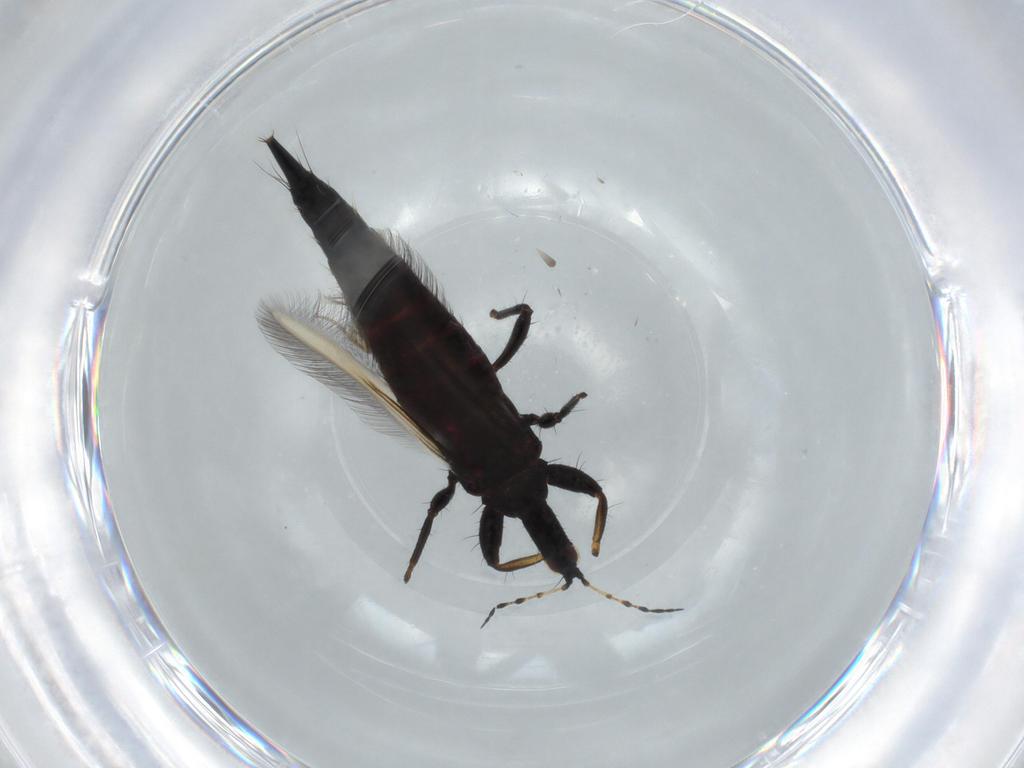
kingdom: Animalia
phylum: Arthropoda
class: Insecta
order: Thysanoptera
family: Phlaeothripidae
